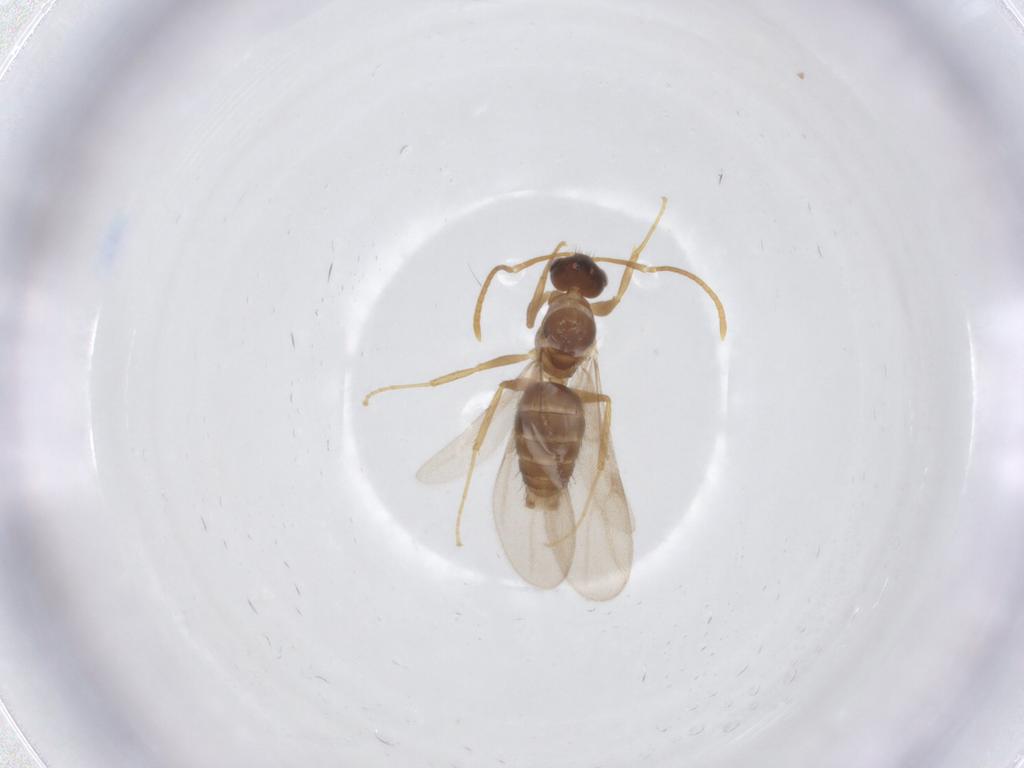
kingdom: Animalia
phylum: Arthropoda
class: Insecta
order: Hymenoptera
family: Formicidae
